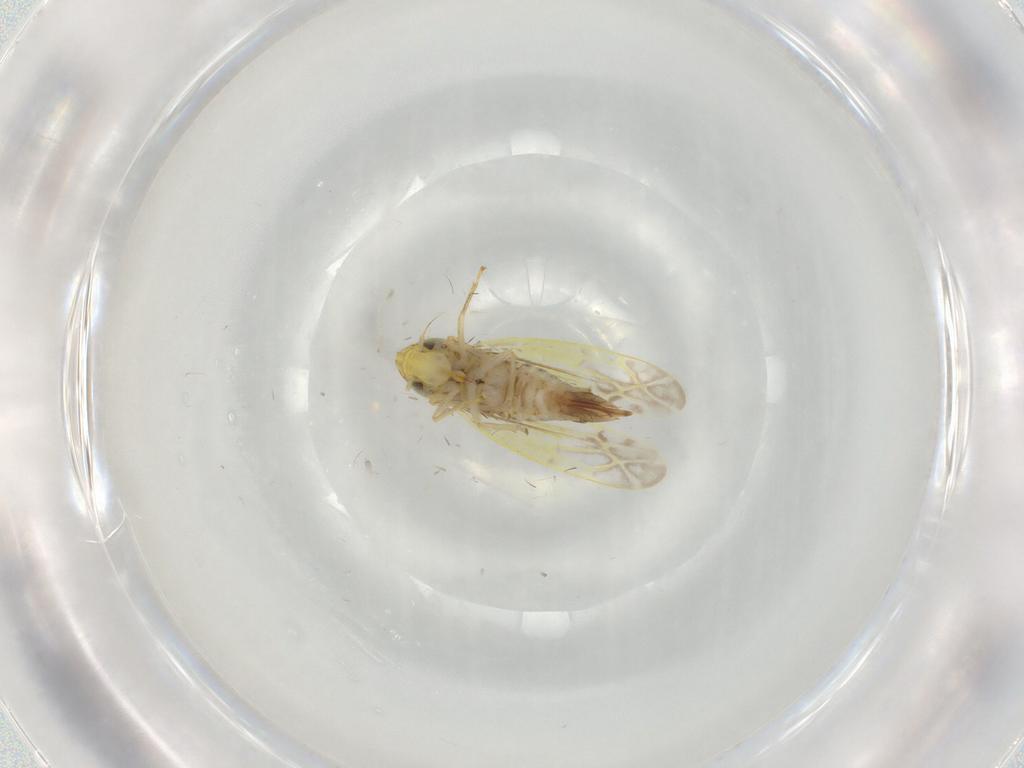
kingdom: Animalia
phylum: Arthropoda
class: Insecta
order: Hemiptera
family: Cicadellidae
